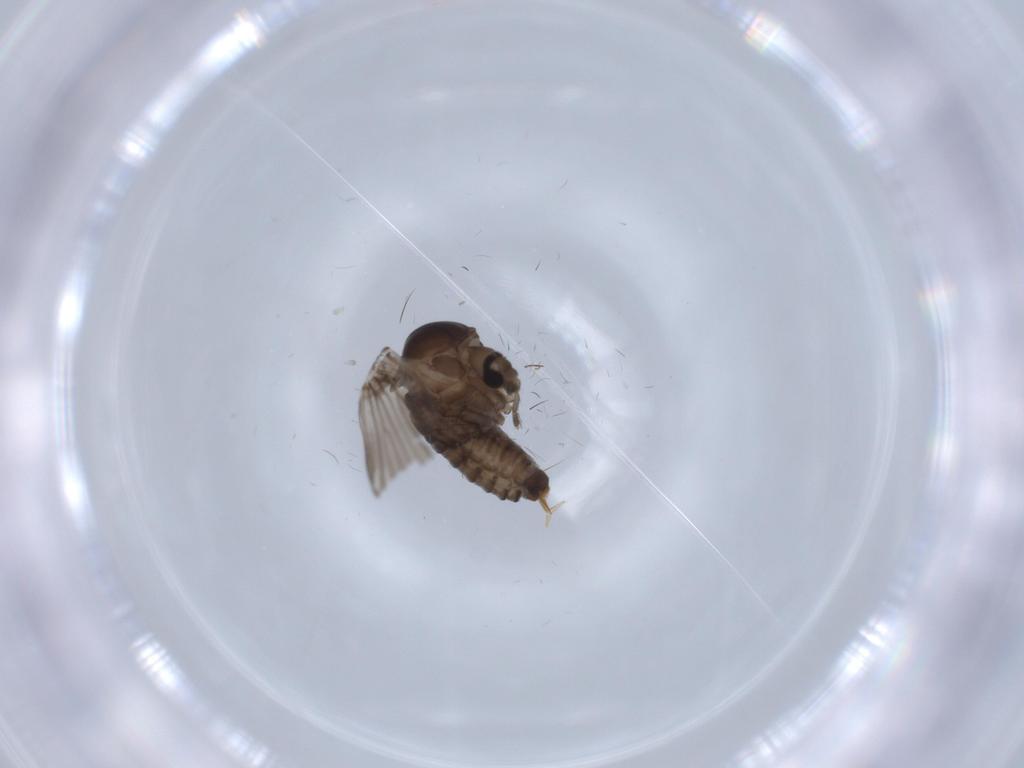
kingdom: Animalia
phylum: Arthropoda
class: Insecta
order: Diptera
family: Psychodidae
